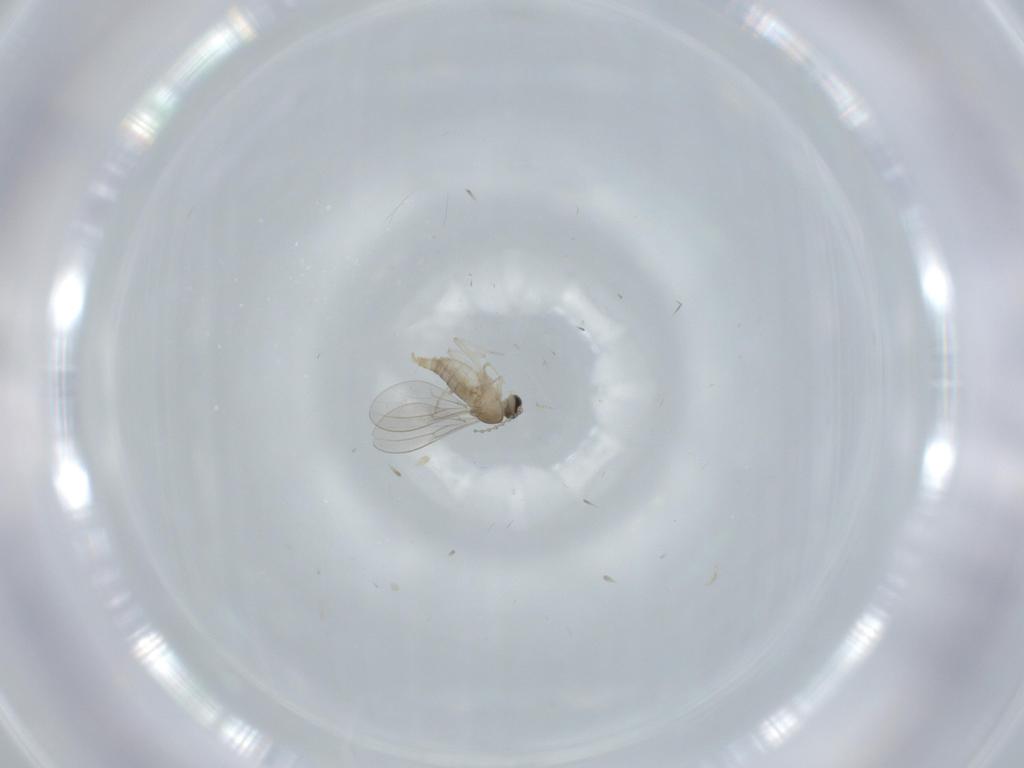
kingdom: Animalia
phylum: Arthropoda
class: Insecta
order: Diptera
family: Cecidomyiidae
